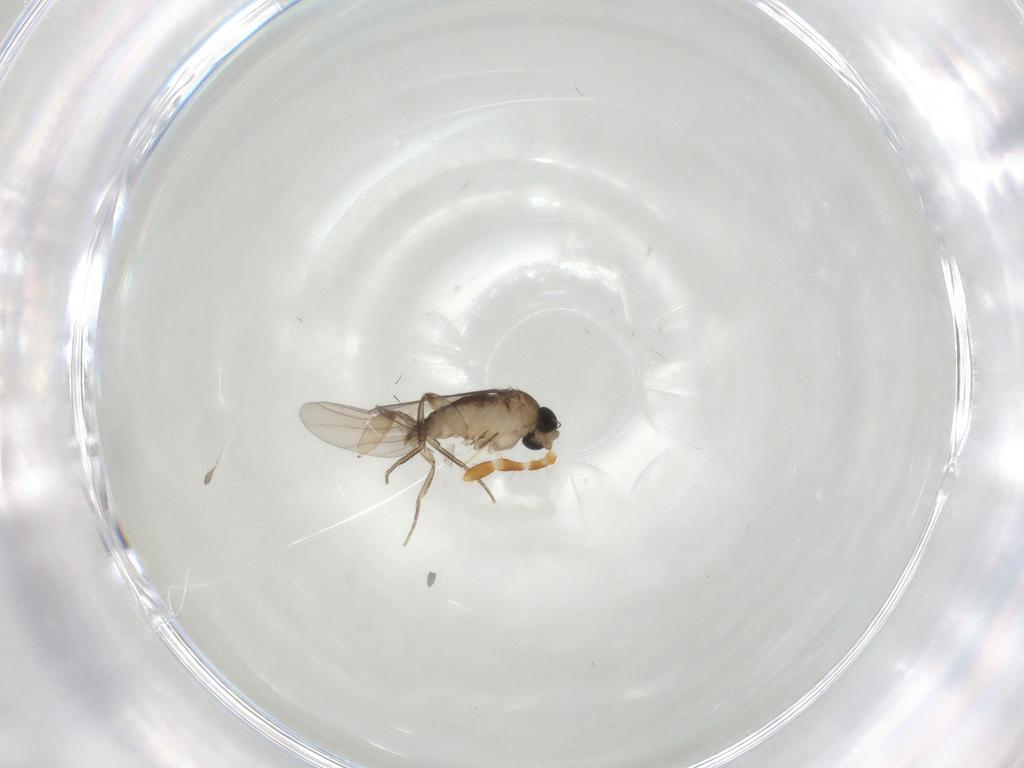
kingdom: Animalia
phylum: Arthropoda
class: Insecta
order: Diptera
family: Phoridae
